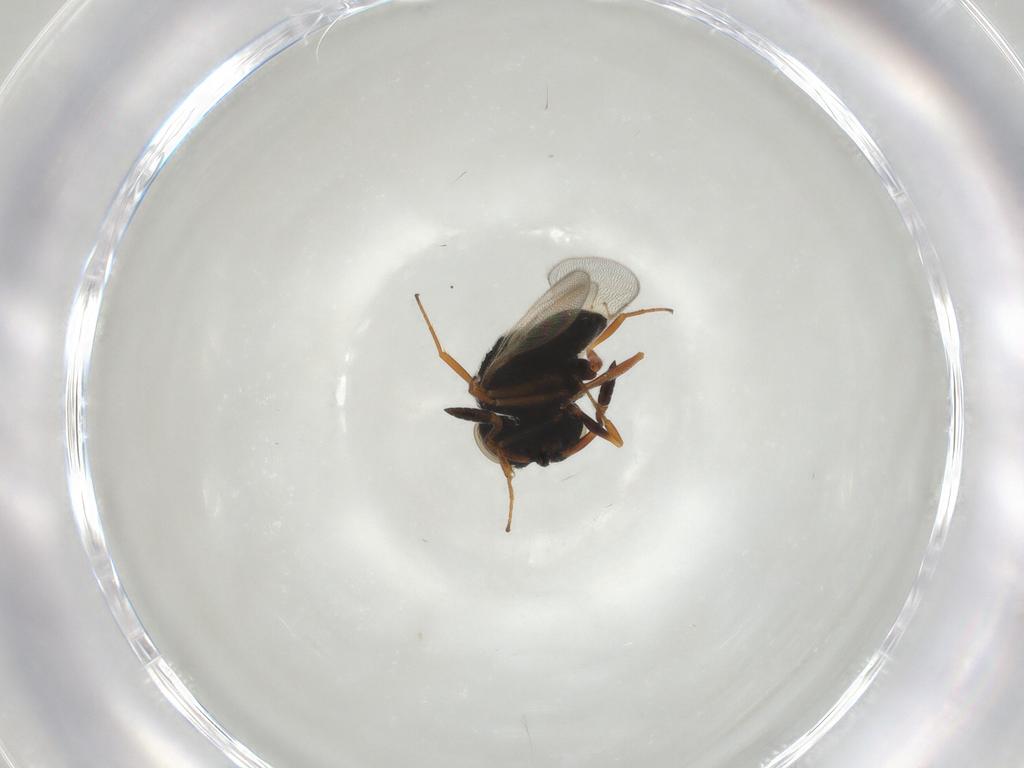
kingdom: Animalia
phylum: Arthropoda
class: Insecta
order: Hymenoptera
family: Scelionidae
